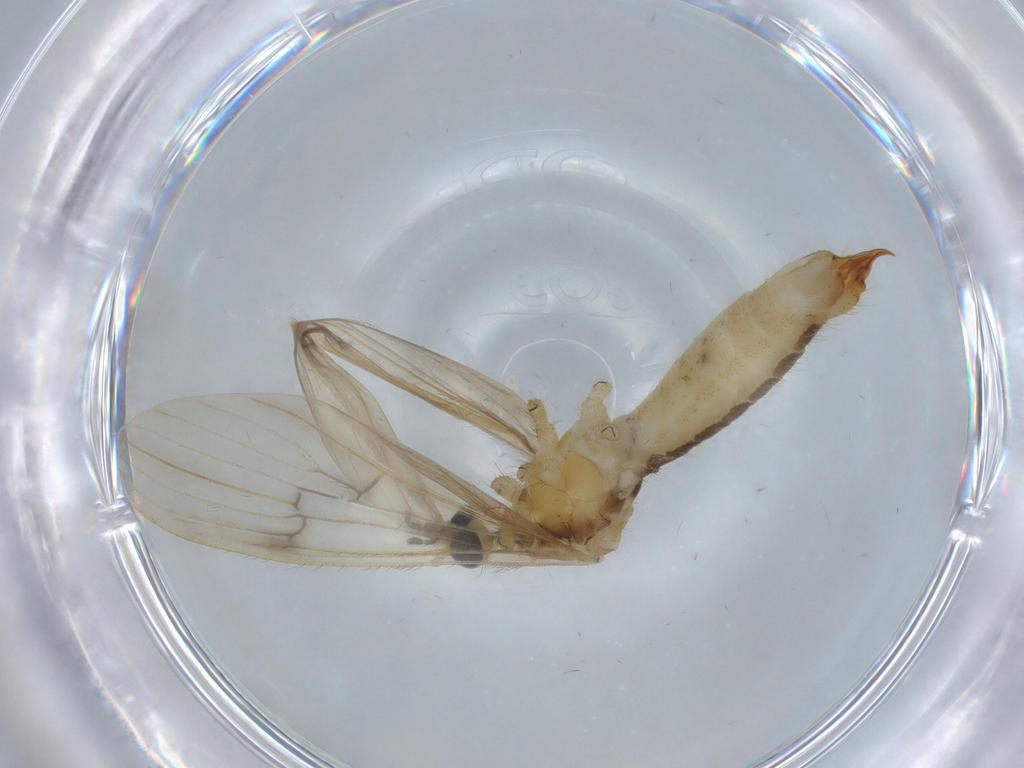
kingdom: Animalia
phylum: Arthropoda
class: Insecta
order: Diptera
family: Limoniidae
